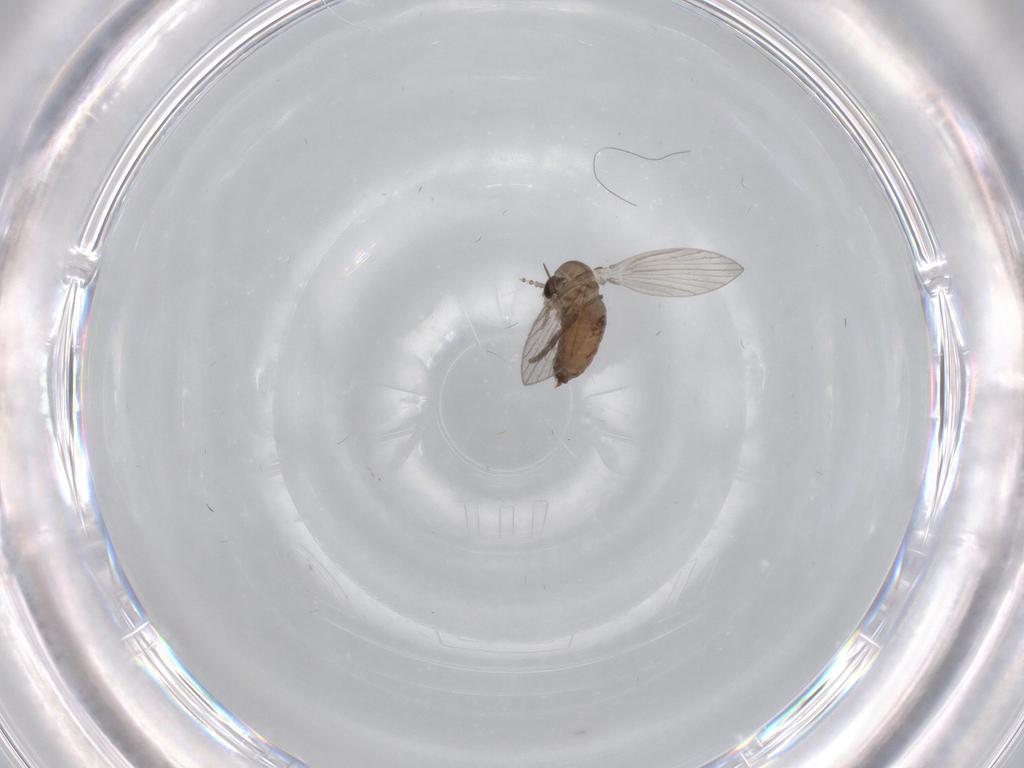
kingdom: Animalia
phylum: Arthropoda
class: Insecta
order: Diptera
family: Psychodidae
